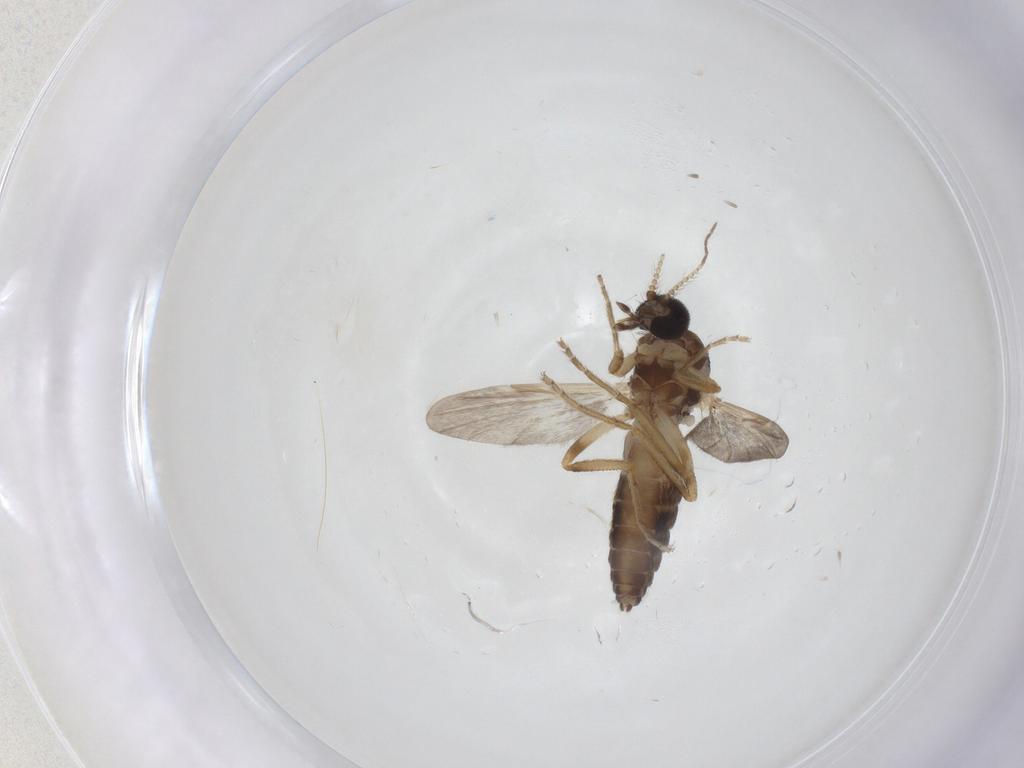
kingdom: Animalia
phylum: Arthropoda
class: Insecta
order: Diptera
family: Ceratopogonidae
